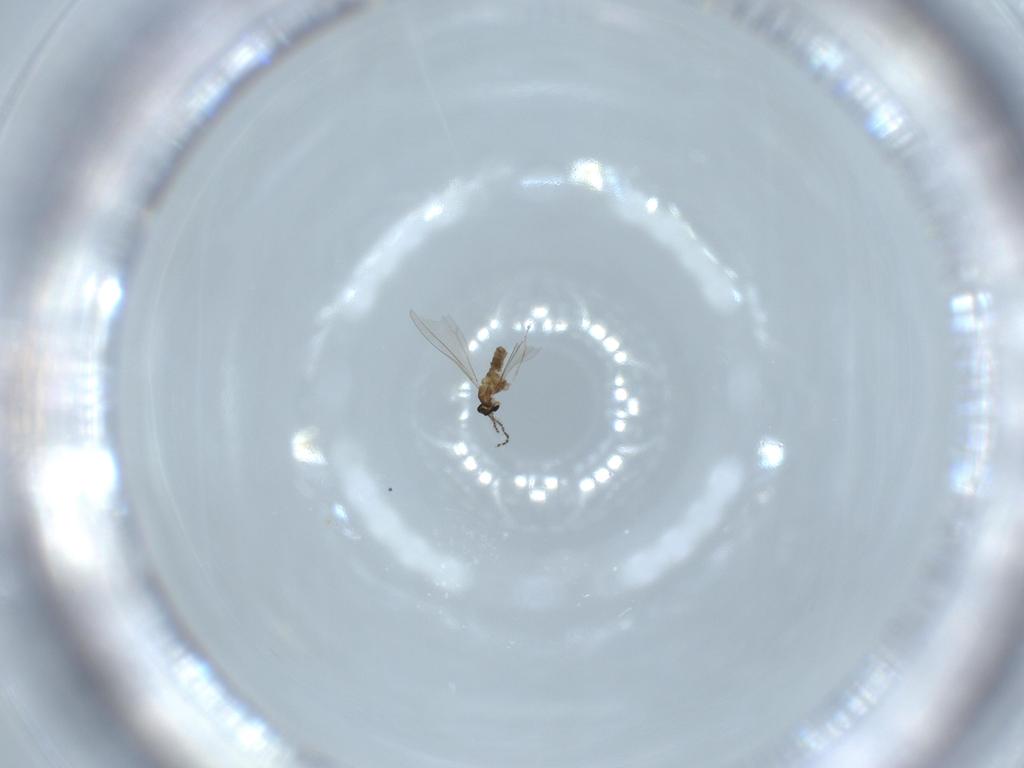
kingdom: Animalia
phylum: Arthropoda
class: Insecta
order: Diptera
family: Cecidomyiidae
